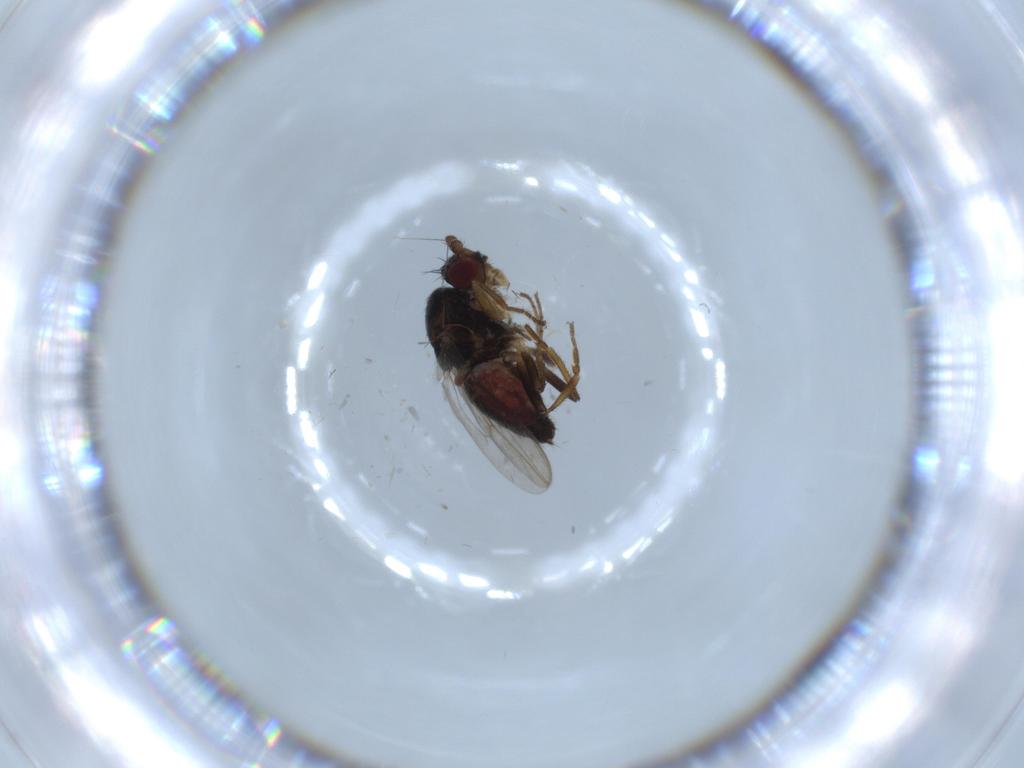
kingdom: Animalia
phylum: Arthropoda
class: Insecta
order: Diptera
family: Sphaeroceridae
